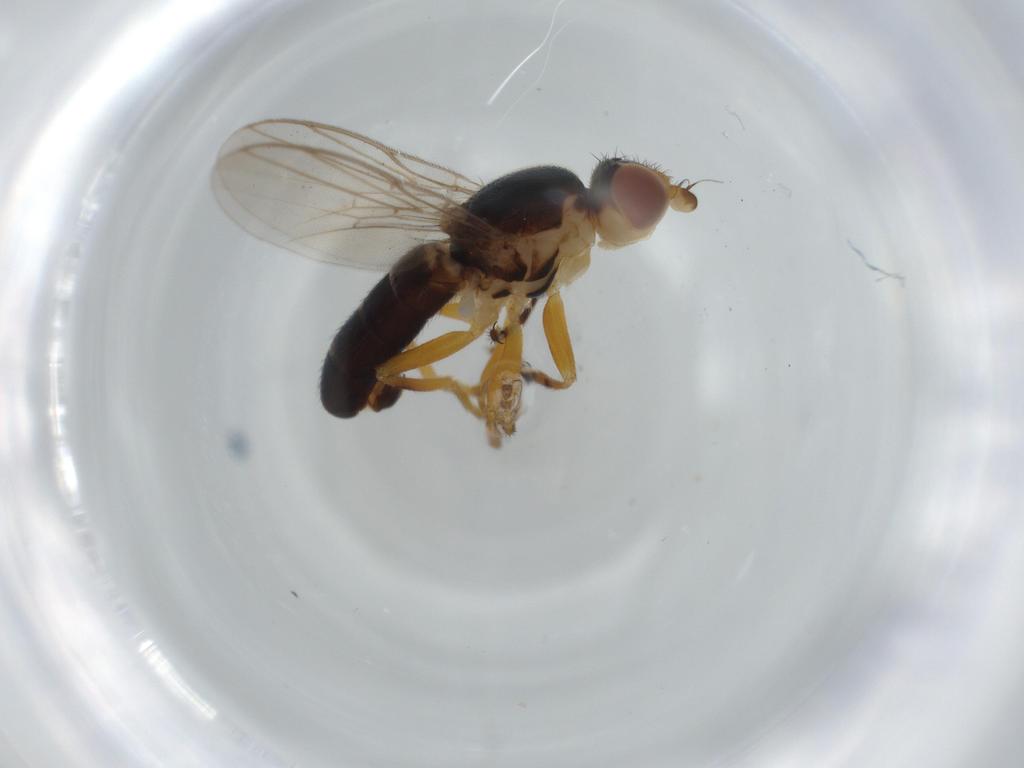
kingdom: Animalia
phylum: Arthropoda
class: Insecta
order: Diptera
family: Chloropidae
